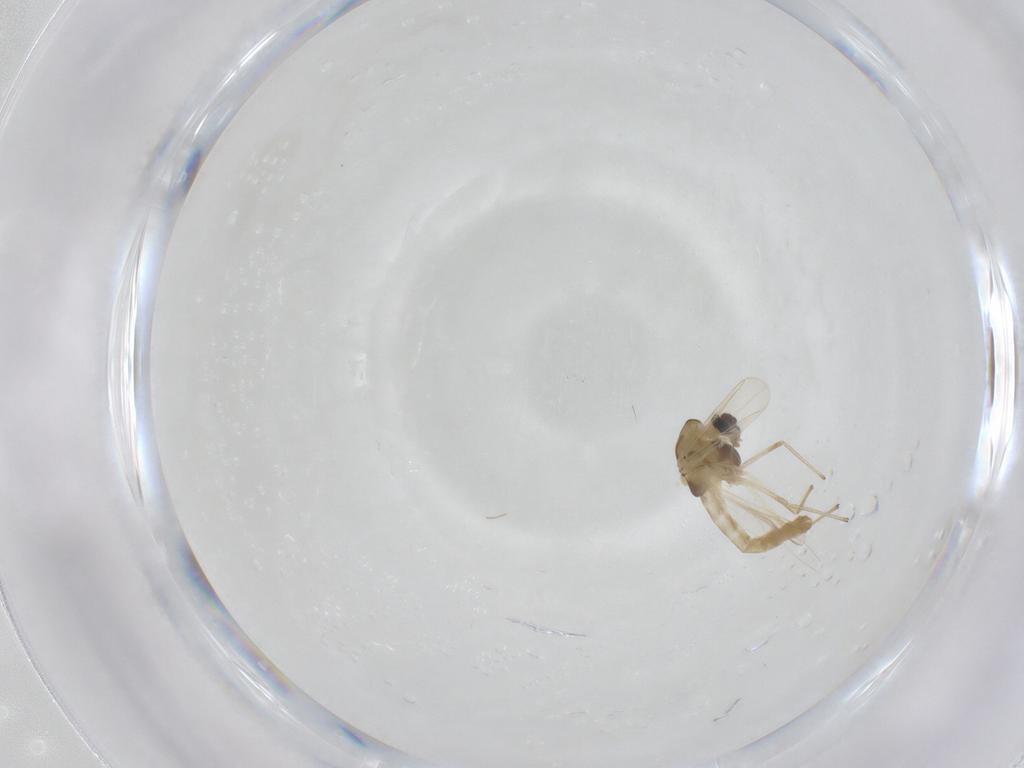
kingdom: Animalia
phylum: Arthropoda
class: Insecta
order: Diptera
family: Chironomidae
